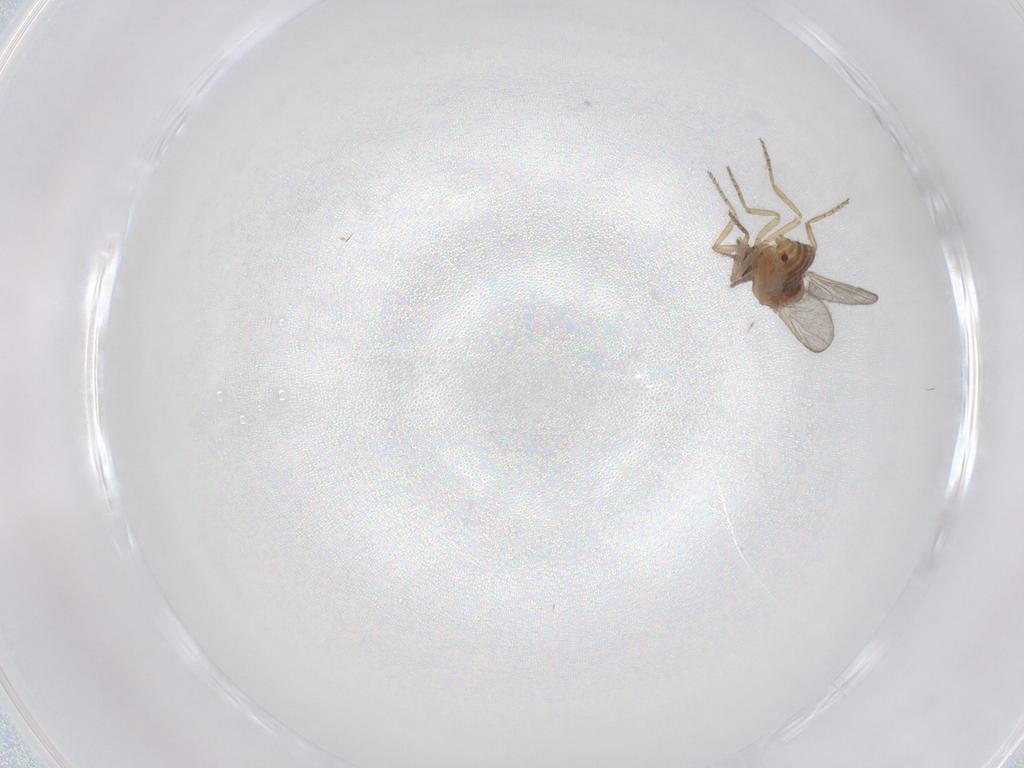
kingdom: Animalia
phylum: Arthropoda
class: Insecta
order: Diptera
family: Ceratopogonidae
